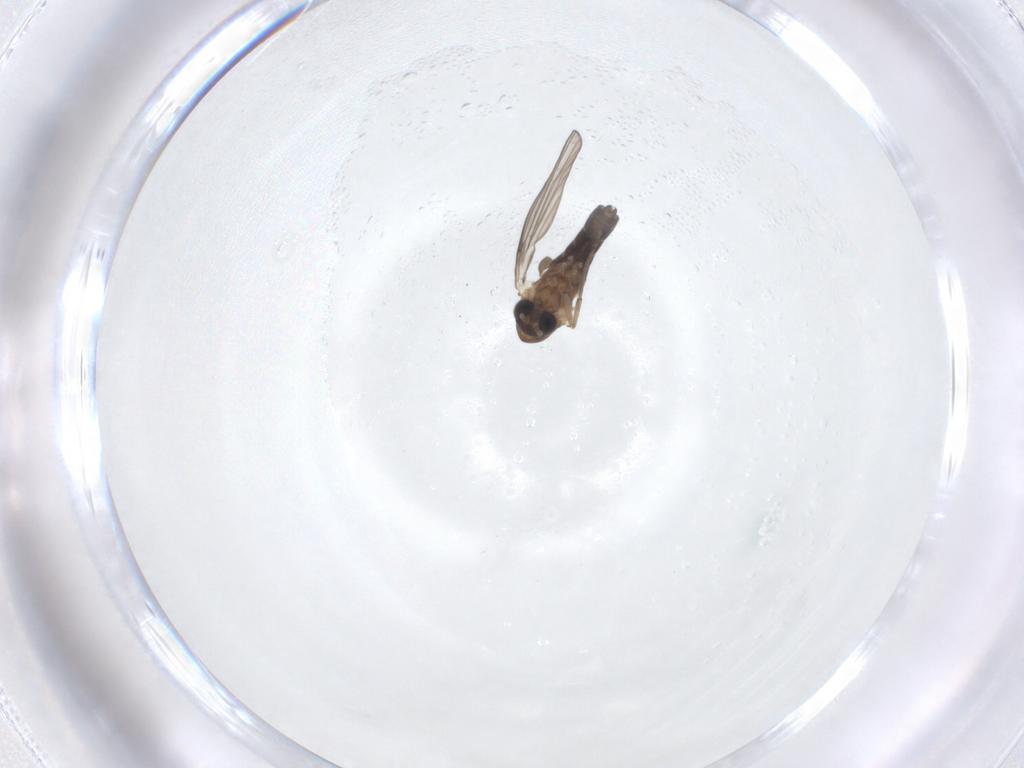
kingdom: Animalia
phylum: Arthropoda
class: Insecta
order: Diptera
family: Psychodidae
